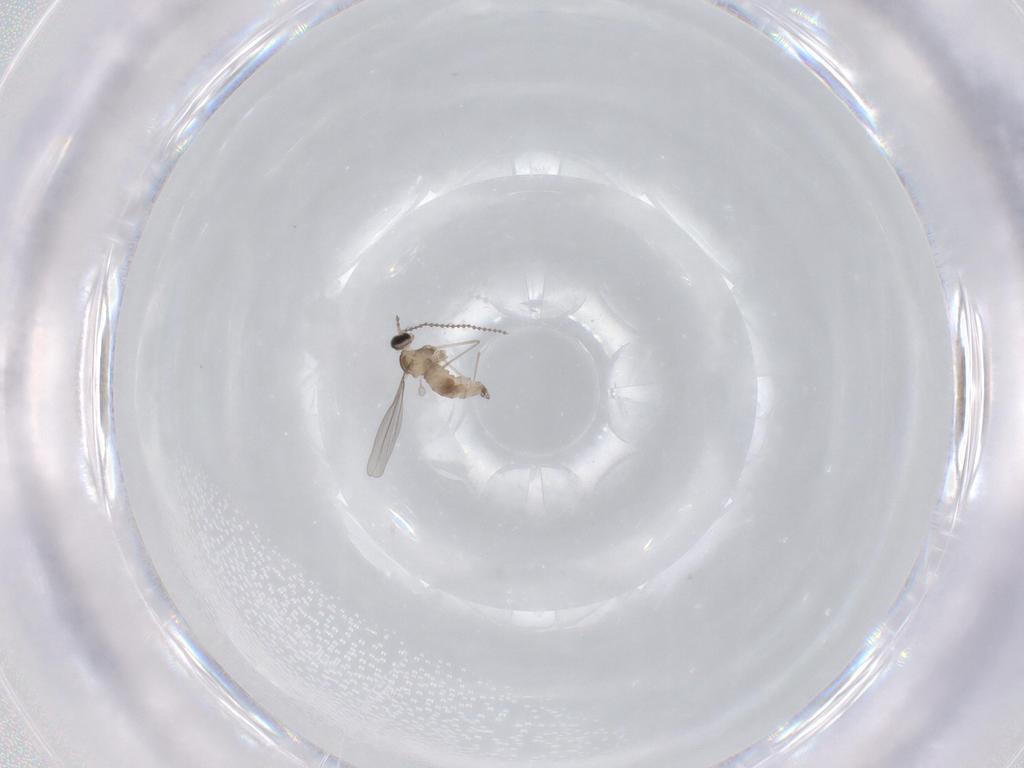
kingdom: Animalia
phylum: Arthropoda
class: Insecta
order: Diptera
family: Cecidomyiidae
